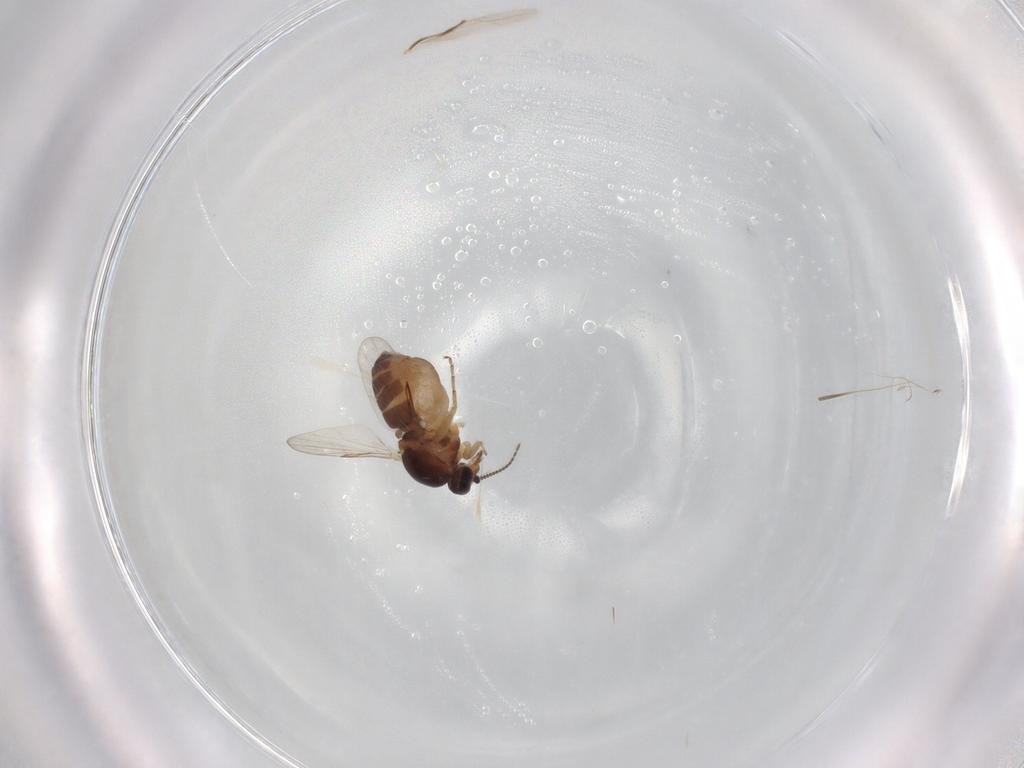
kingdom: Animalia
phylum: Arthropoda
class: Insecta
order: Diptera
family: Ceratopogonidae
